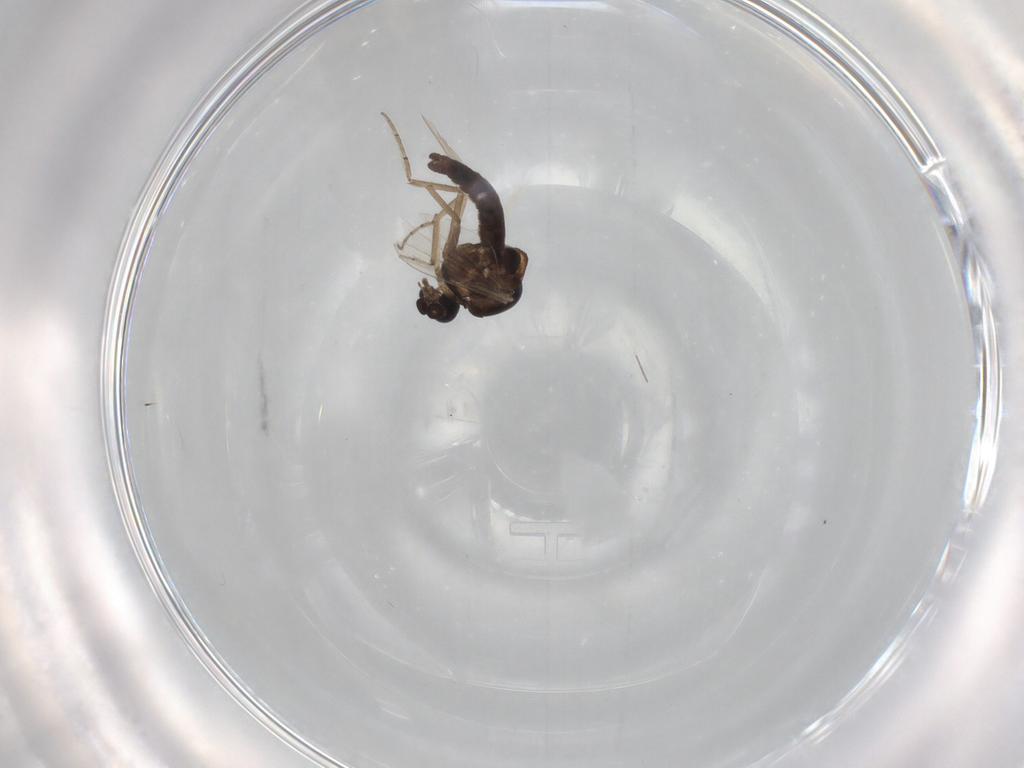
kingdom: Animalia
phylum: Arthropoda
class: Insecta
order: Diptera
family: Ceratopogonidae
